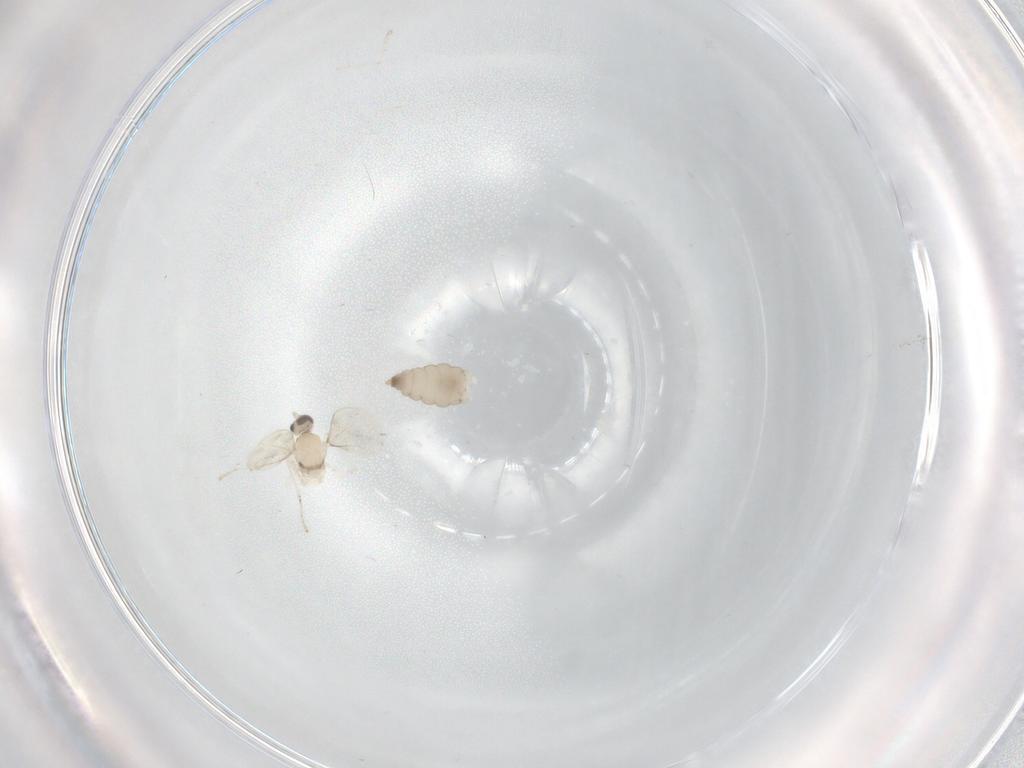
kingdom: Animalia
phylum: Arthropoda
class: Insecta
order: Diptera
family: Cecidomyiidae
